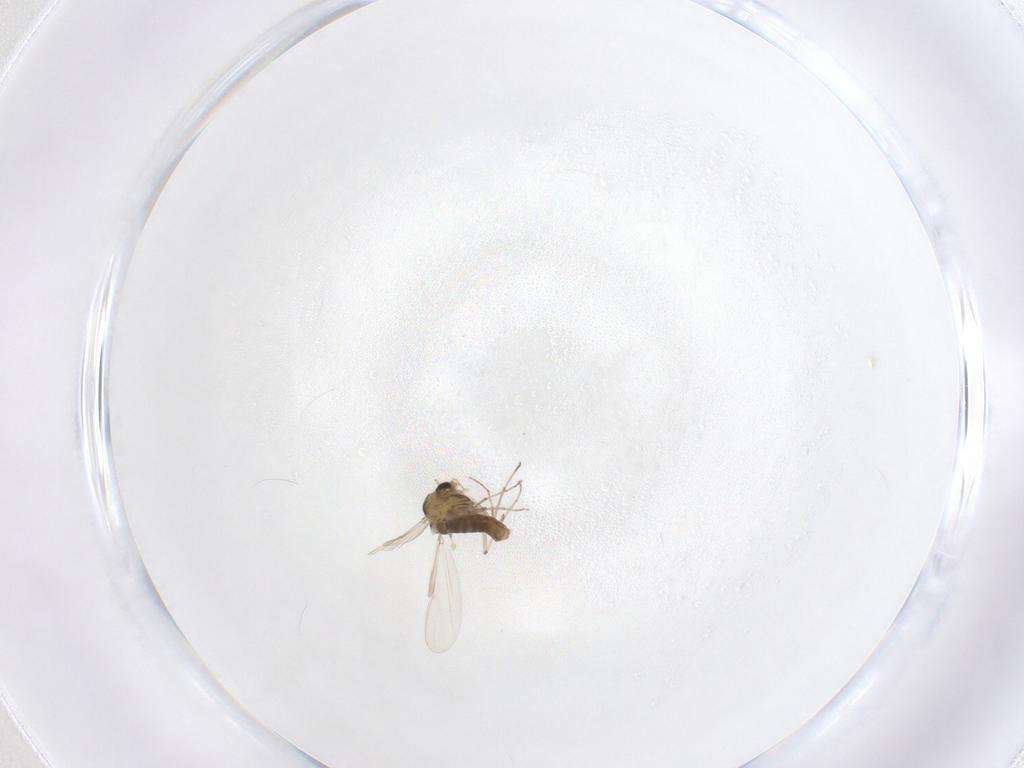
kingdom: Animalia
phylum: Arthropoda
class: Insecta
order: Diptera
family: Chironomidae
